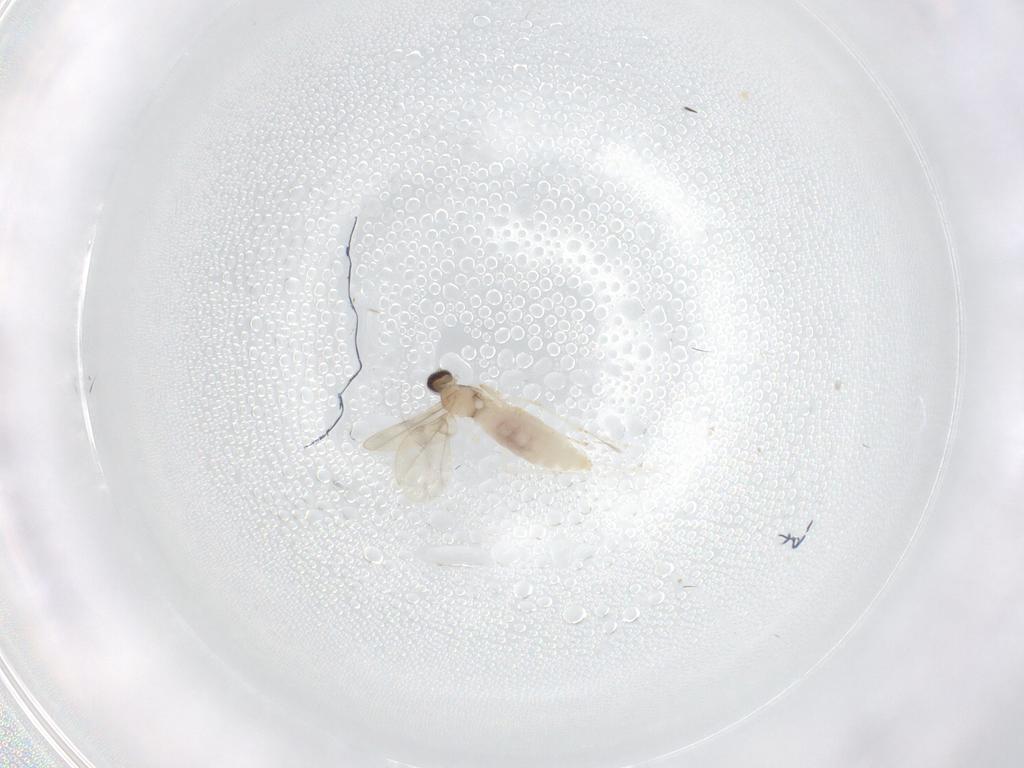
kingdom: Animalia
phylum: Arthropoda
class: Insecta
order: Diptera
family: Cecidomyiidae
